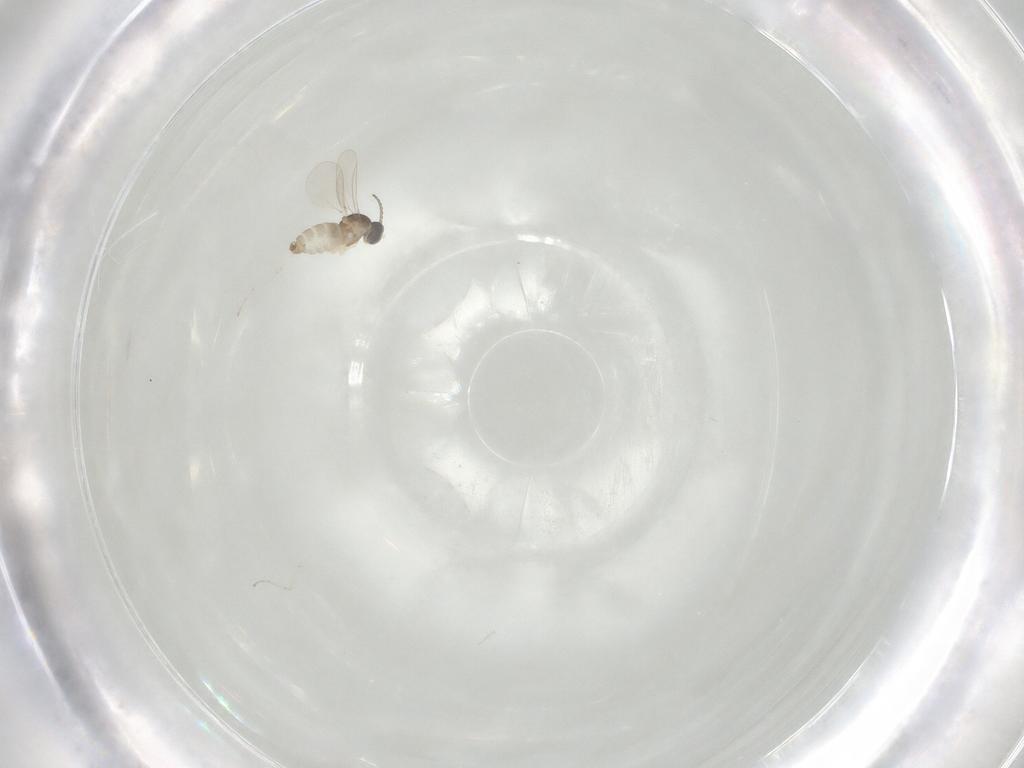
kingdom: Animalia
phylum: Arthropoda
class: Insecta
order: Diptera
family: Cecidomyiidae
